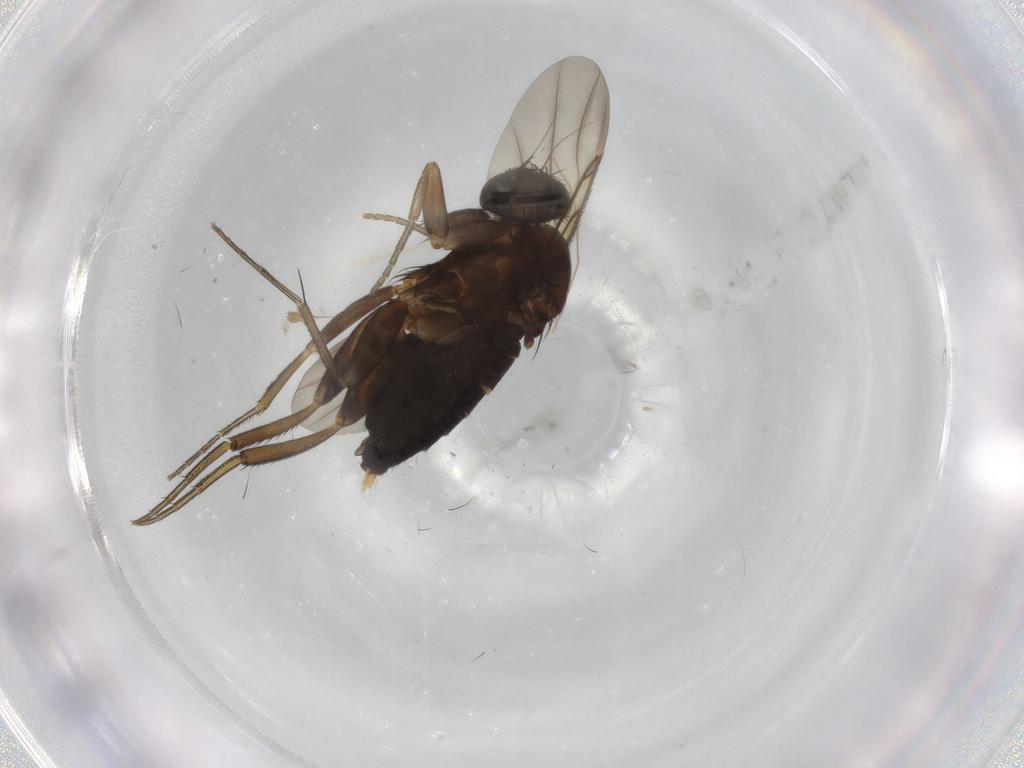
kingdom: Animalia
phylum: Arthropoda
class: Insecta
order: Diptera
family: Phoridae
